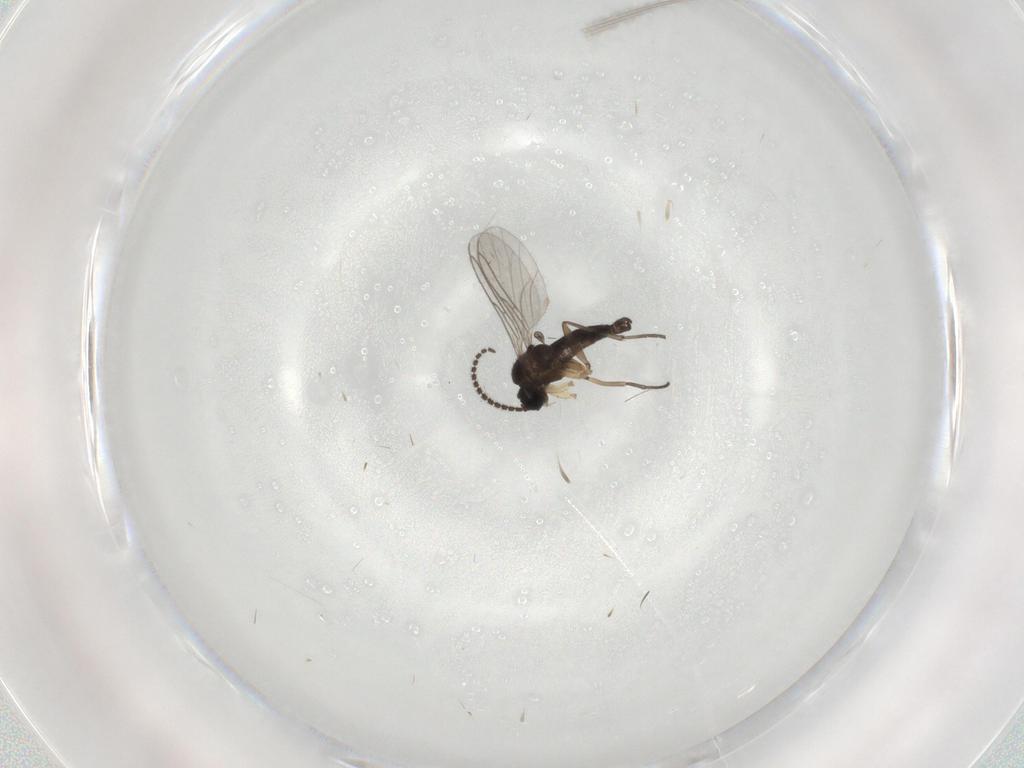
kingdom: Animalia
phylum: Arthropoda
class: Insecta
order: Diptera
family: Sciaridae
